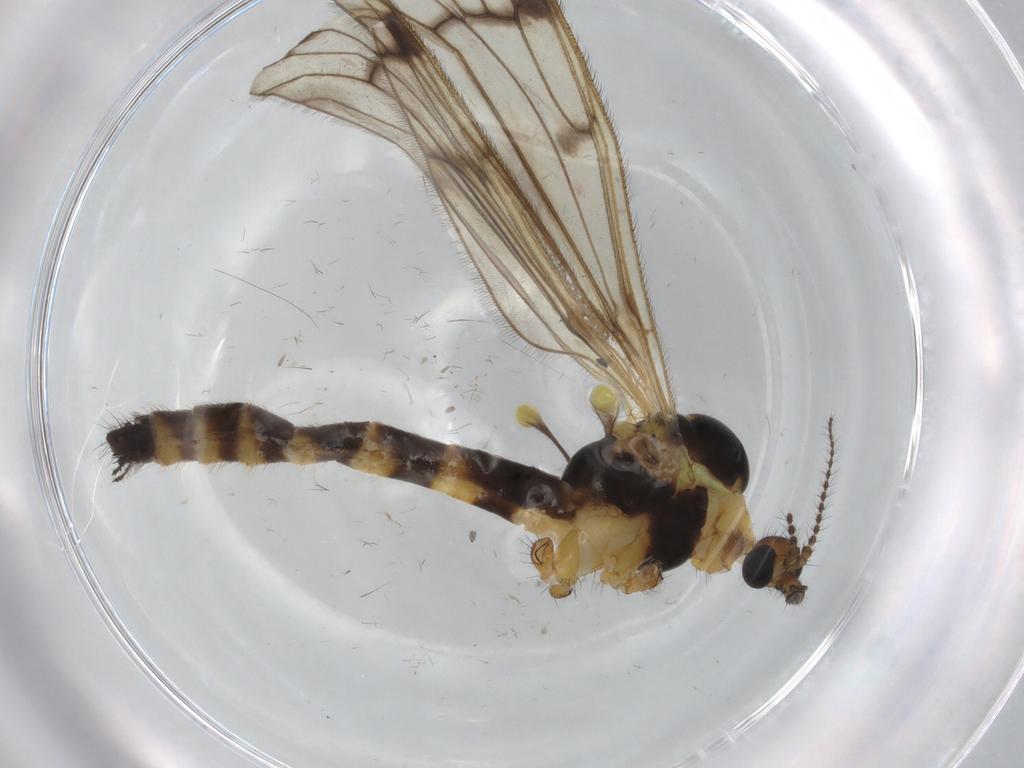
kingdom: Animalia
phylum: Arthropoda
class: Insecta
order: Diptera
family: Limoniidae
